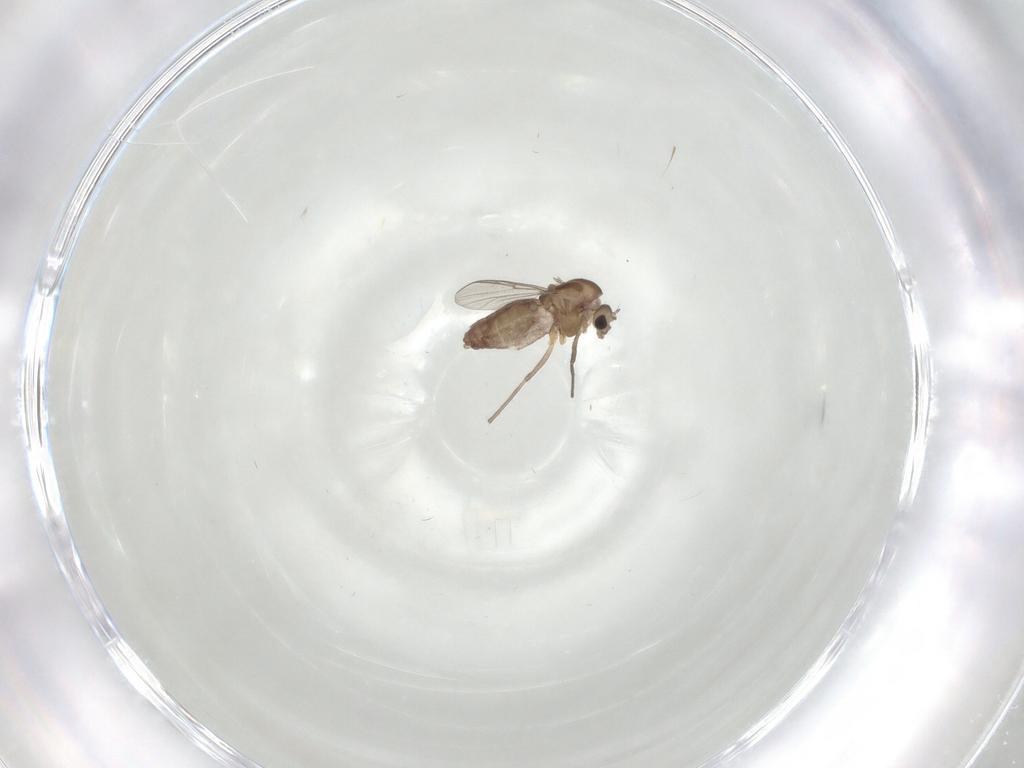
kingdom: Animalia
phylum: Arthropoda
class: Insecta
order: Diptera
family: Chironomidae
